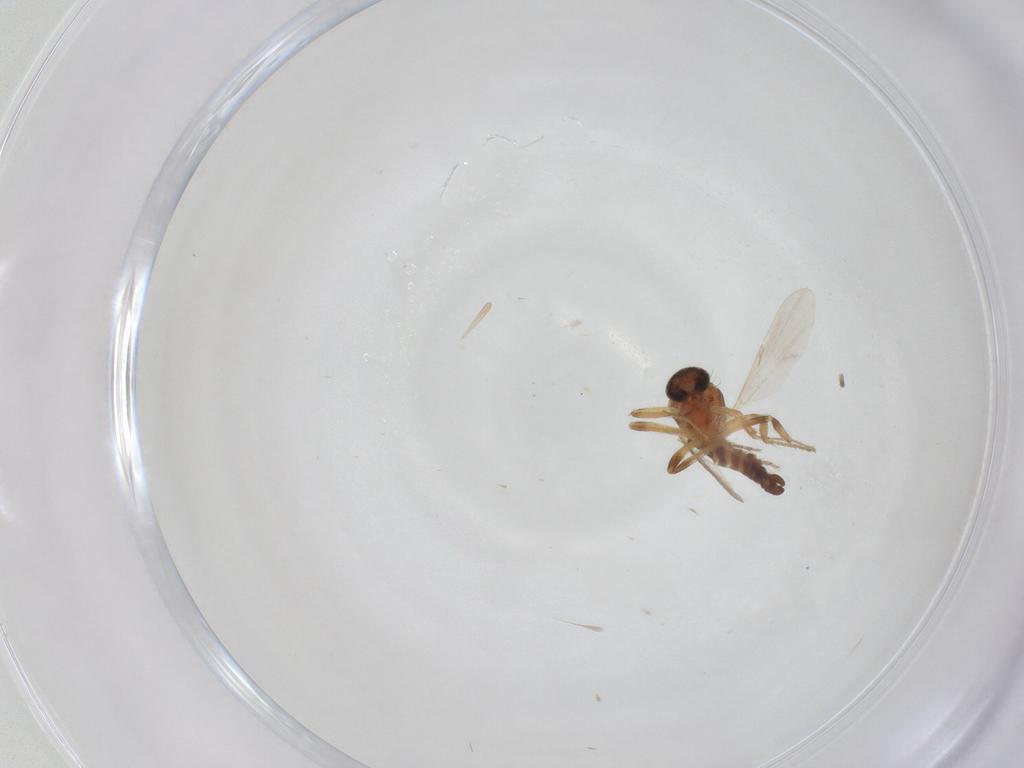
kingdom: Animalia
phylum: Arthropoda
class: Insecta
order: Diptera
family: Ceratopogonidae
